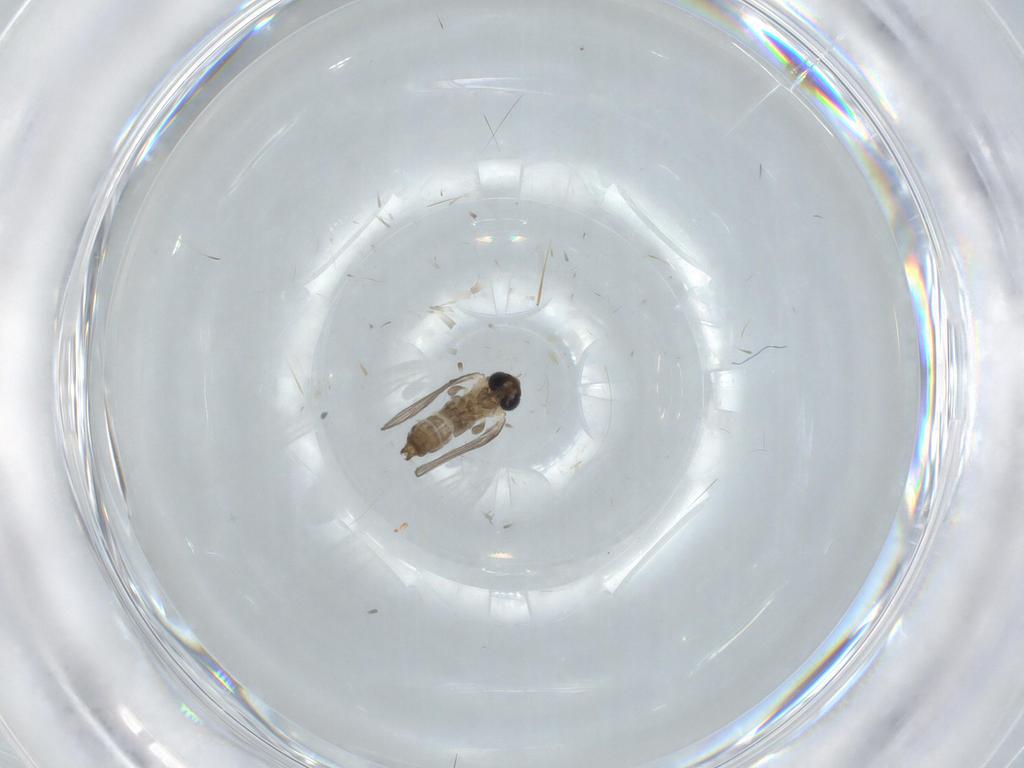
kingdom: Animalia
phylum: Arthropoda
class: Insecta
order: Diptera
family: Psychodidae
